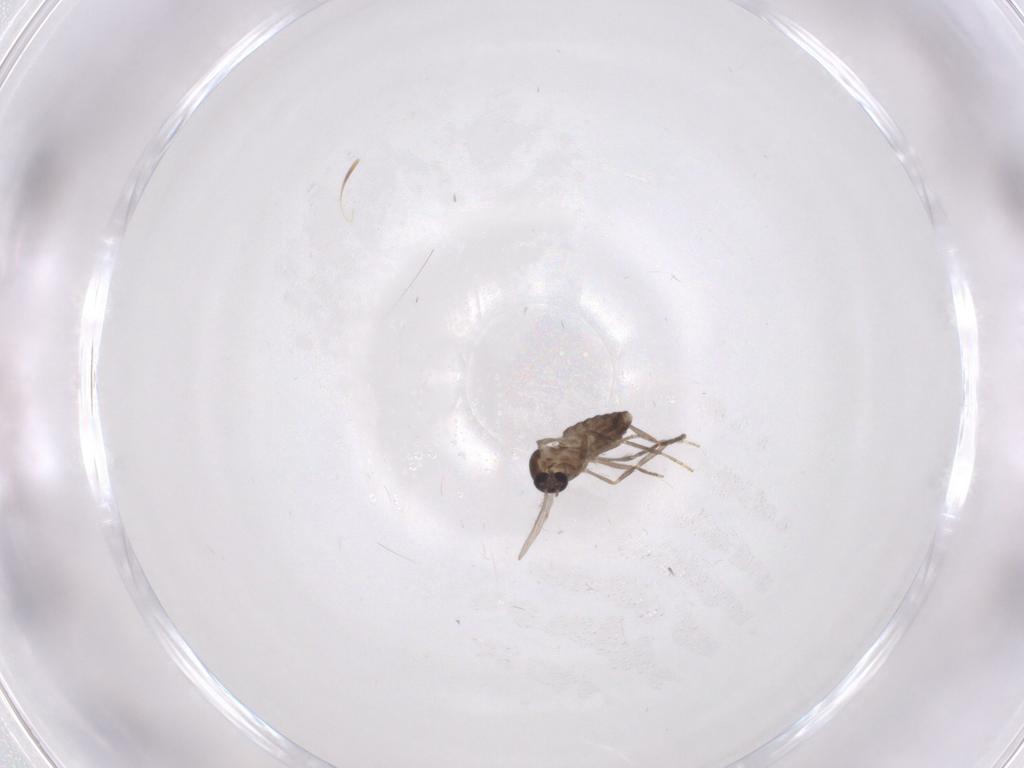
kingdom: Animalia
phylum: Arthropoda
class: Insecta
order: Diptera
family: Ceratopogonidae
